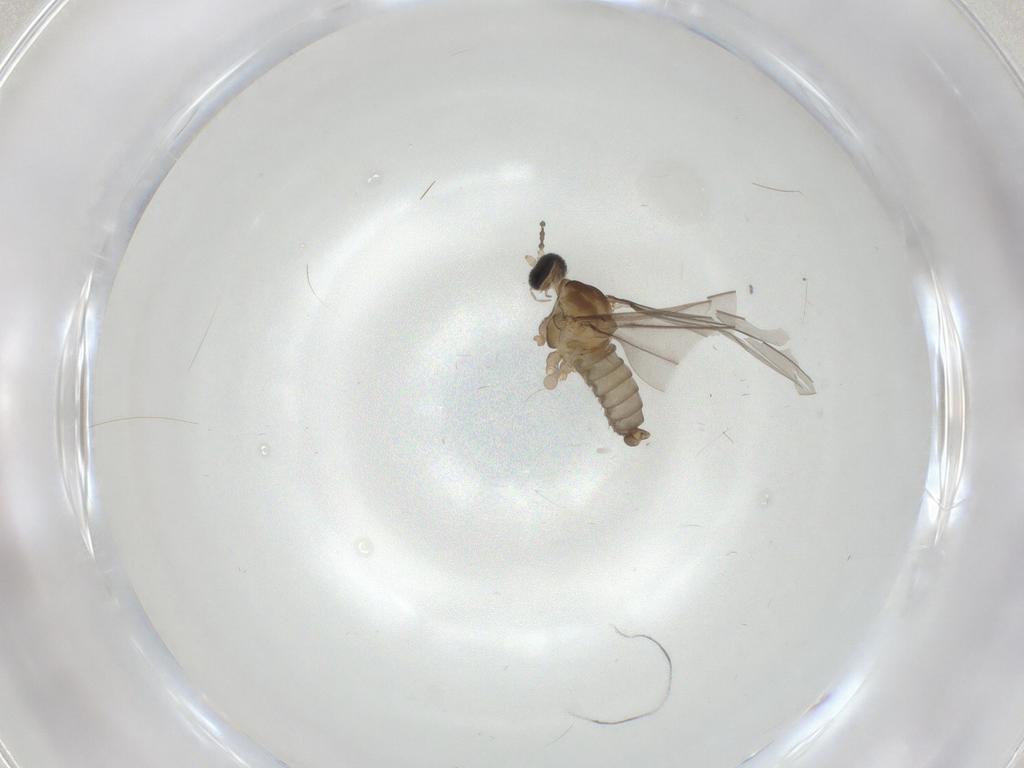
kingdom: Animalia
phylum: Arthropoda
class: Insecta
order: Diptera
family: Cecidomyiidae
